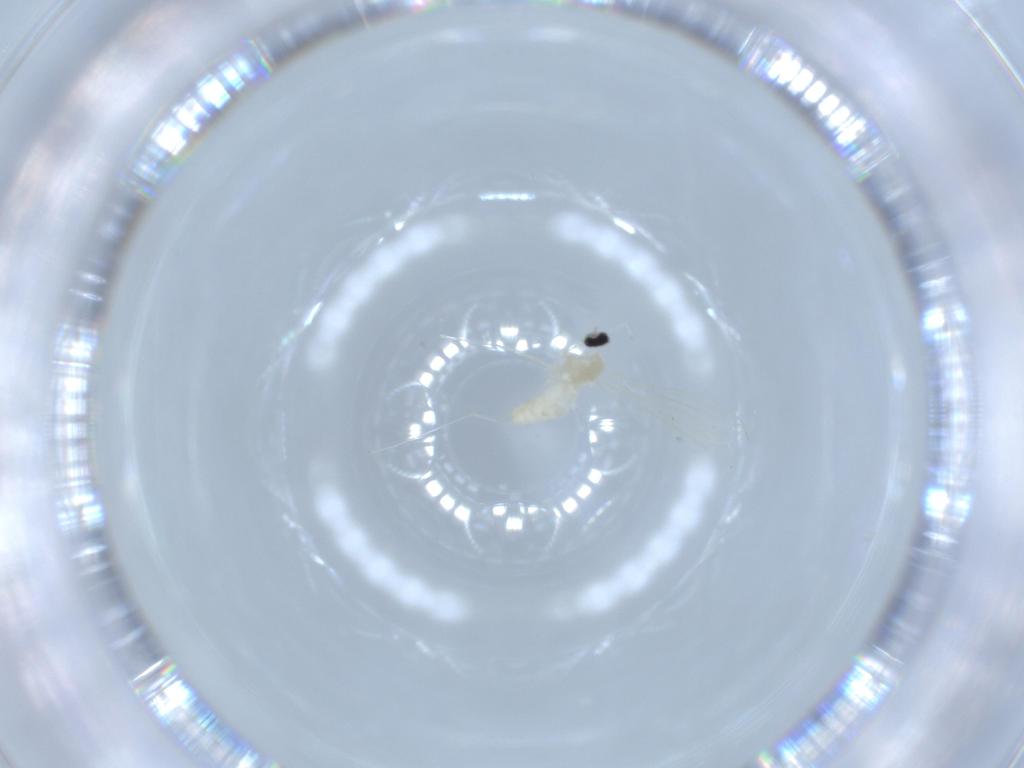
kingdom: Animalia
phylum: Arthropoda
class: Insecta
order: Diptera
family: Cecidomyiidae
